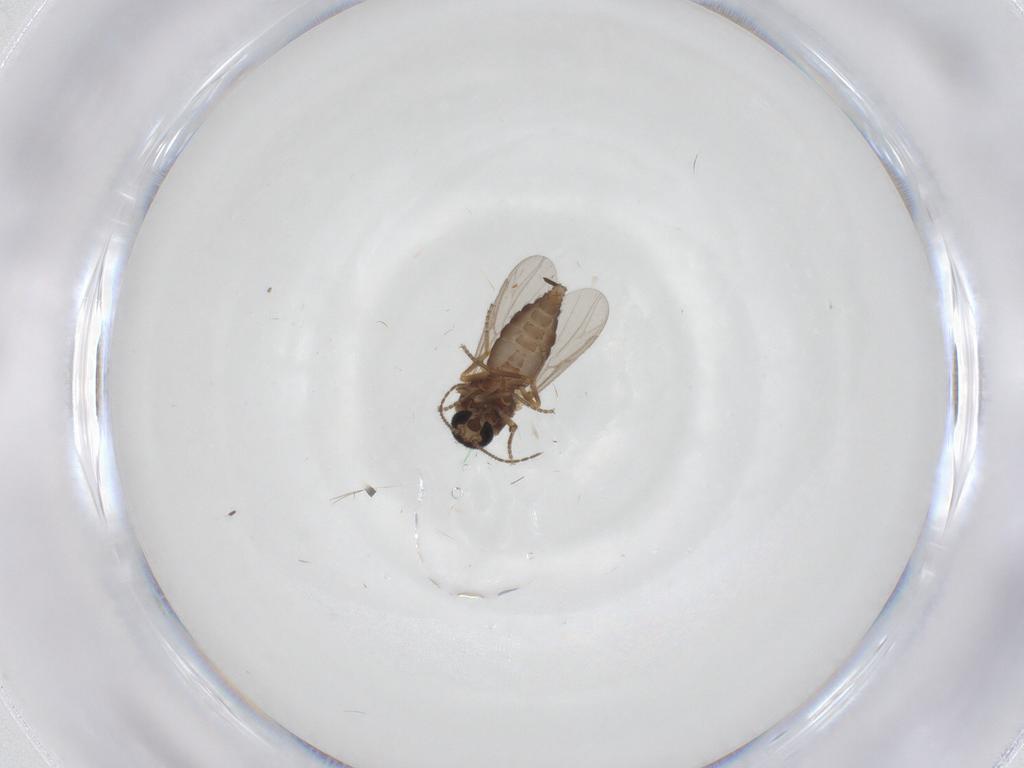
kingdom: Animalia
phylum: Arthropoda
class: Insecta
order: Diptera
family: Ceratopogonidae
